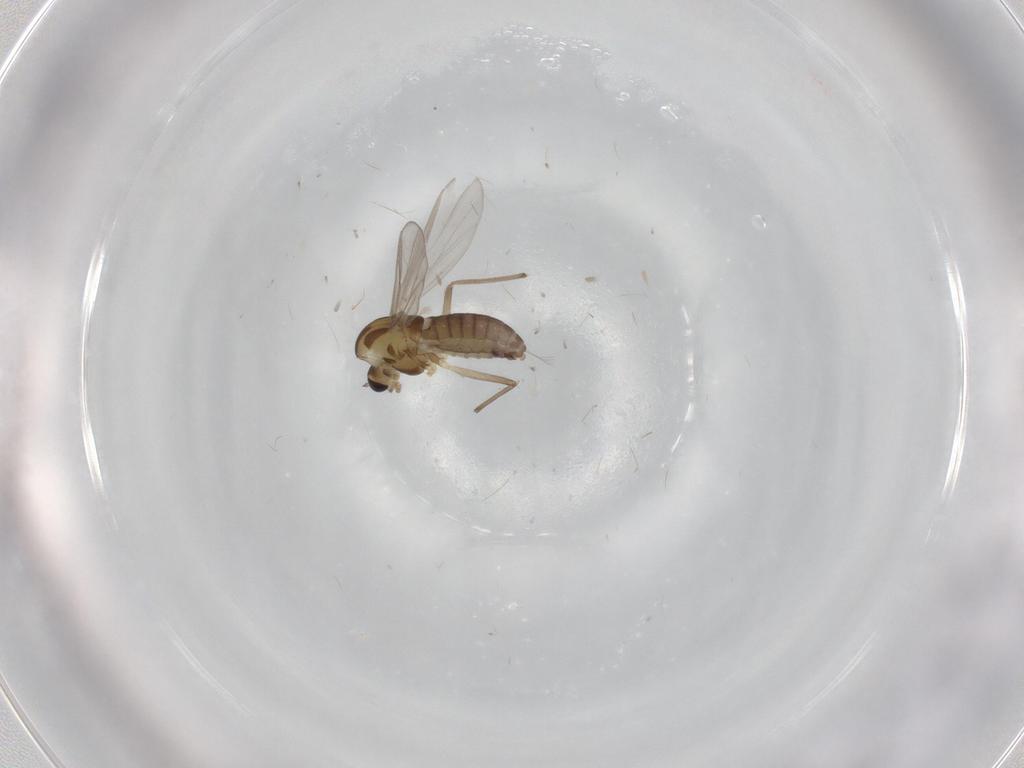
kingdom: Animalia
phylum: Arthropoda
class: Insecta
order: Diptera
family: Chironomidae
